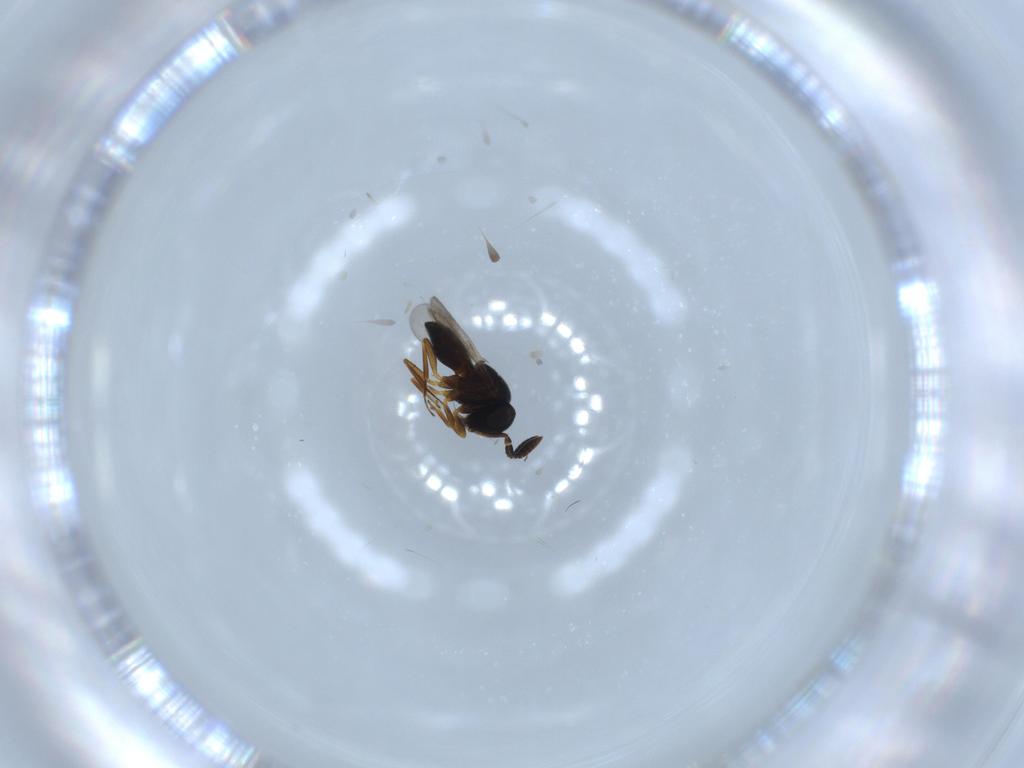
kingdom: Animalia
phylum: Arthropoda
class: Insecta
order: Hymenoptera
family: Scelionidae
